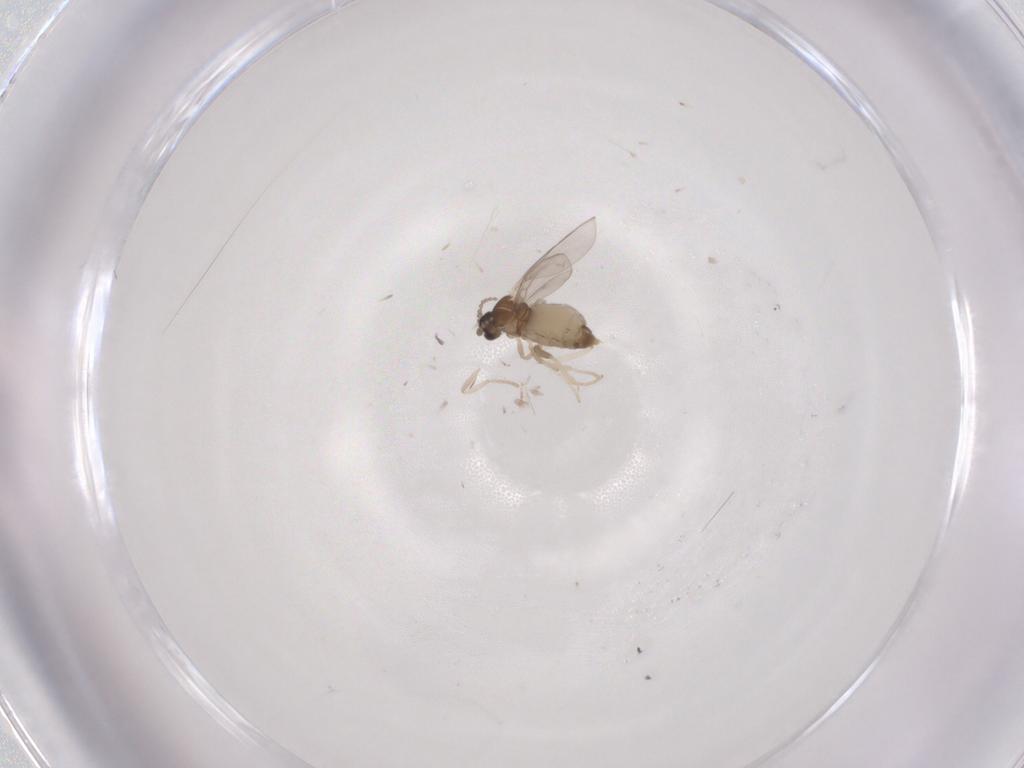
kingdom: Animalia
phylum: Arthropoda
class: Insecta
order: Diptera
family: Cecidomyiidae
